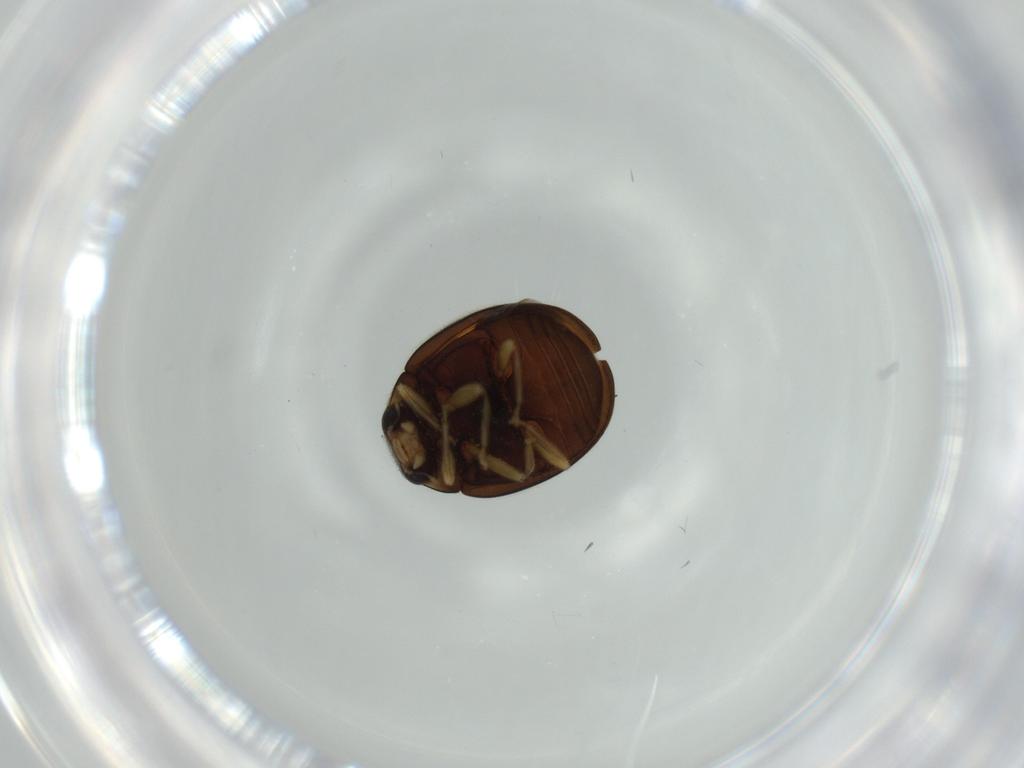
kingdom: Animalia
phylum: Arthropoda
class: Insecta
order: Coleoptera
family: Coccinellidae
